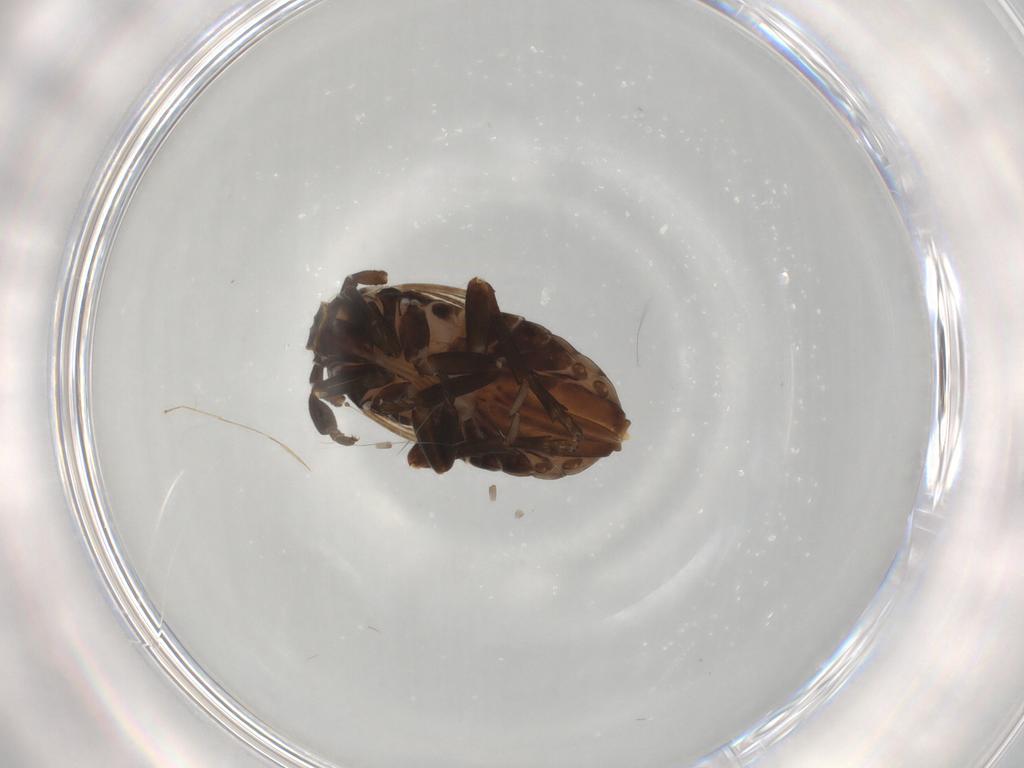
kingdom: Animalia
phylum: Arthropoda
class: Insecta
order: Hemiptera
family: Delphacidae
